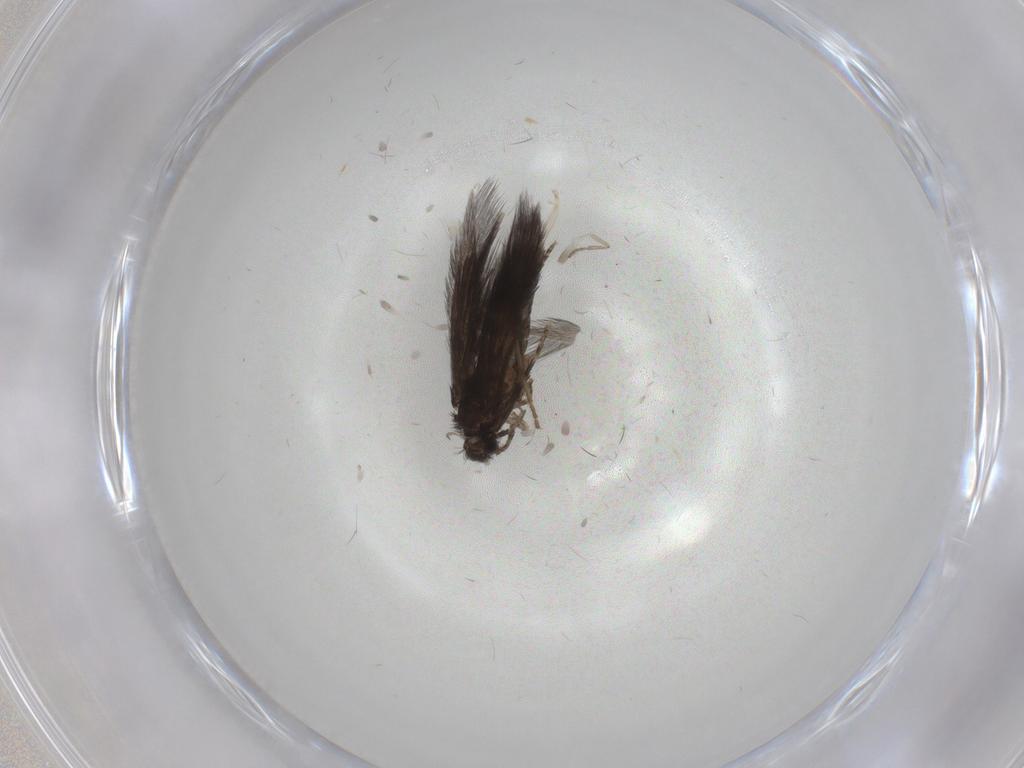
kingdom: Animalia
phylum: Arthropoda
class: Insecta
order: Trichoptera
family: Hydroptilidae
